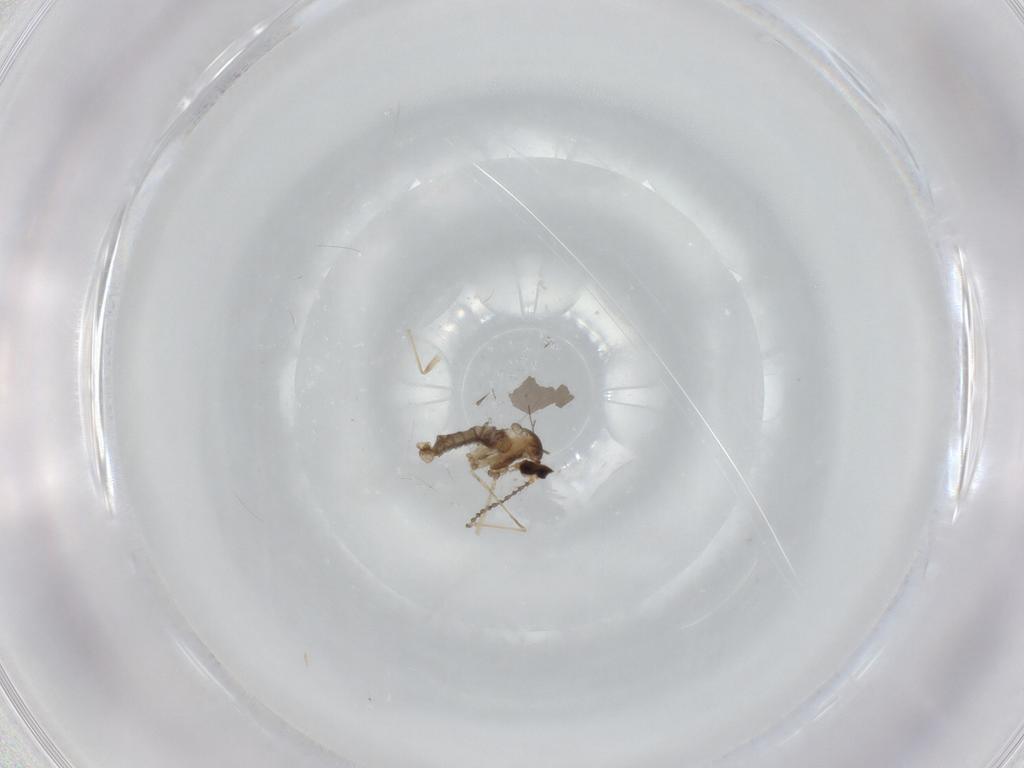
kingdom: Animalia
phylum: Arthropoda
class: Insecta
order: Diptera
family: Cecidomyiidae
